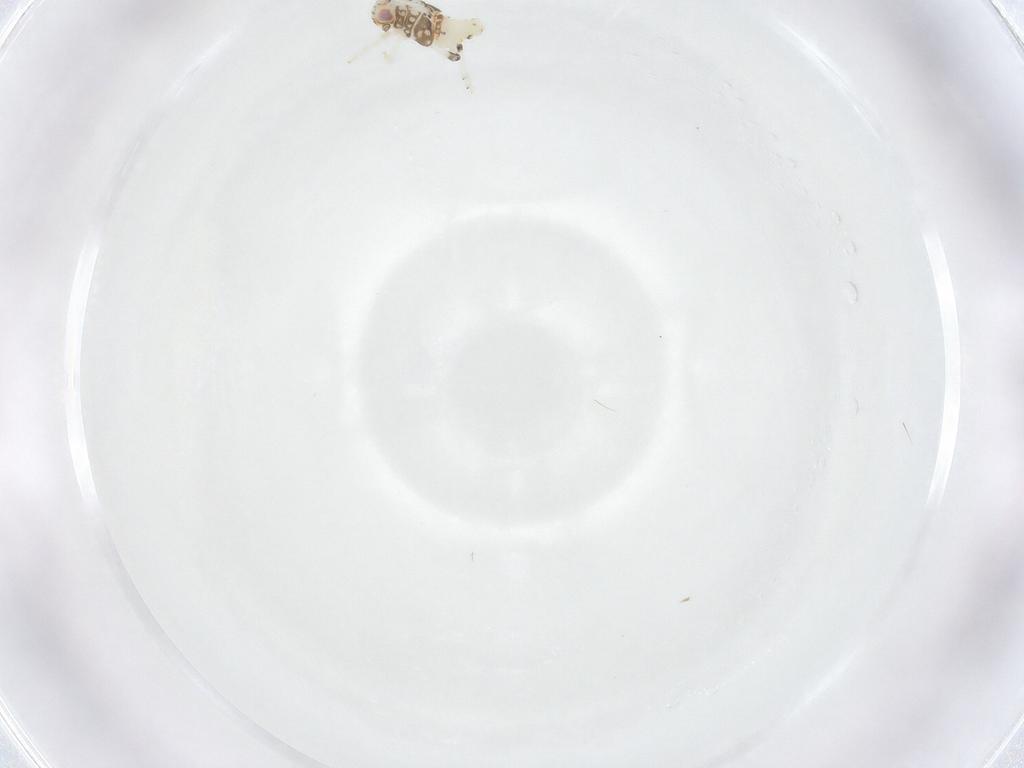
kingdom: Animalia
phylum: Arthropoda
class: Insecta
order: Hemiptera
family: Nogodinidae
